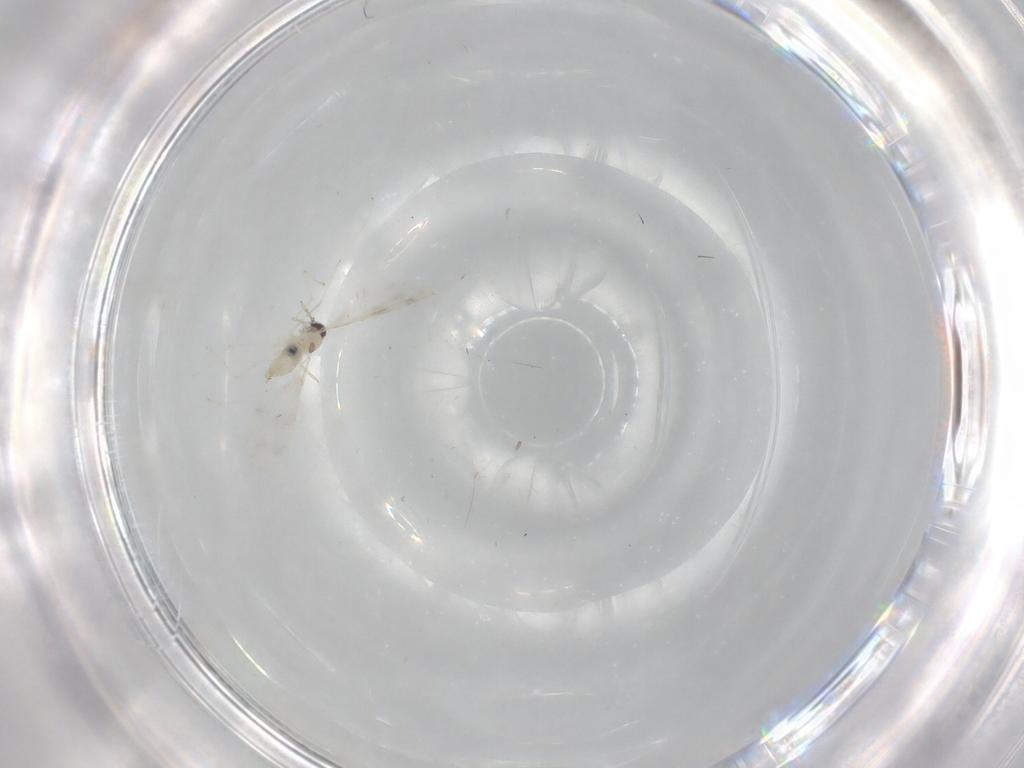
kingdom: Animalia
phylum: Arthropoda
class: Insecta
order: Diptera
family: Cecidomyiidae
